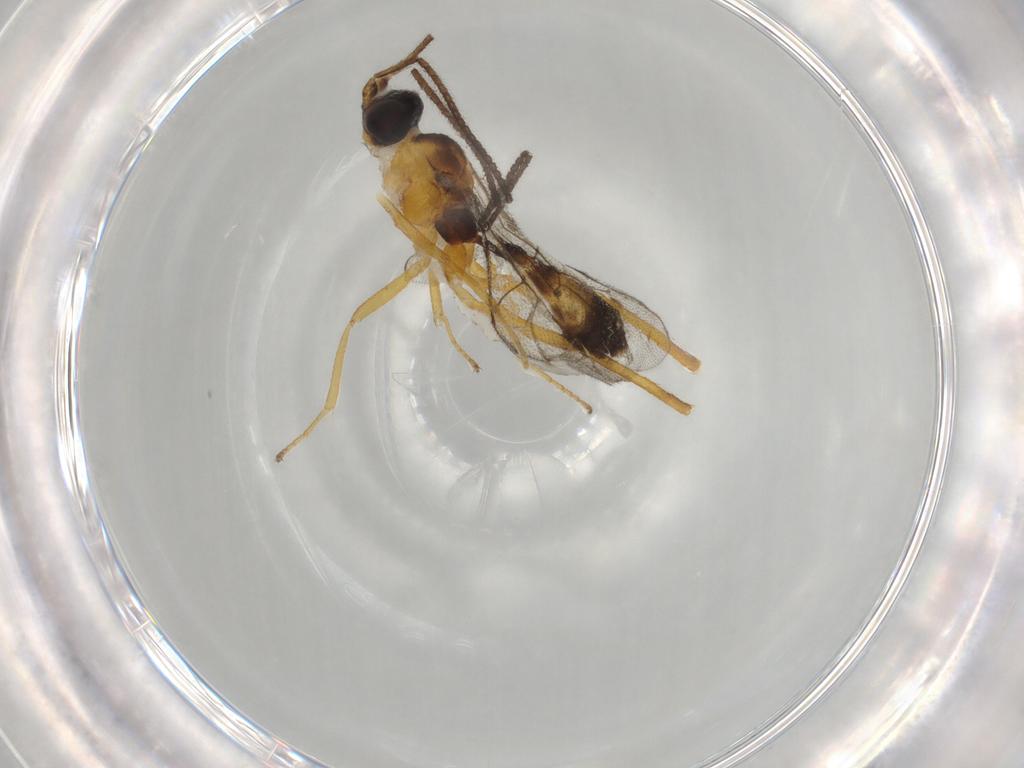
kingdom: Animalia
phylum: Arthropoda
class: Insecta
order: Hymenoptera
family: Ichneumonidae
